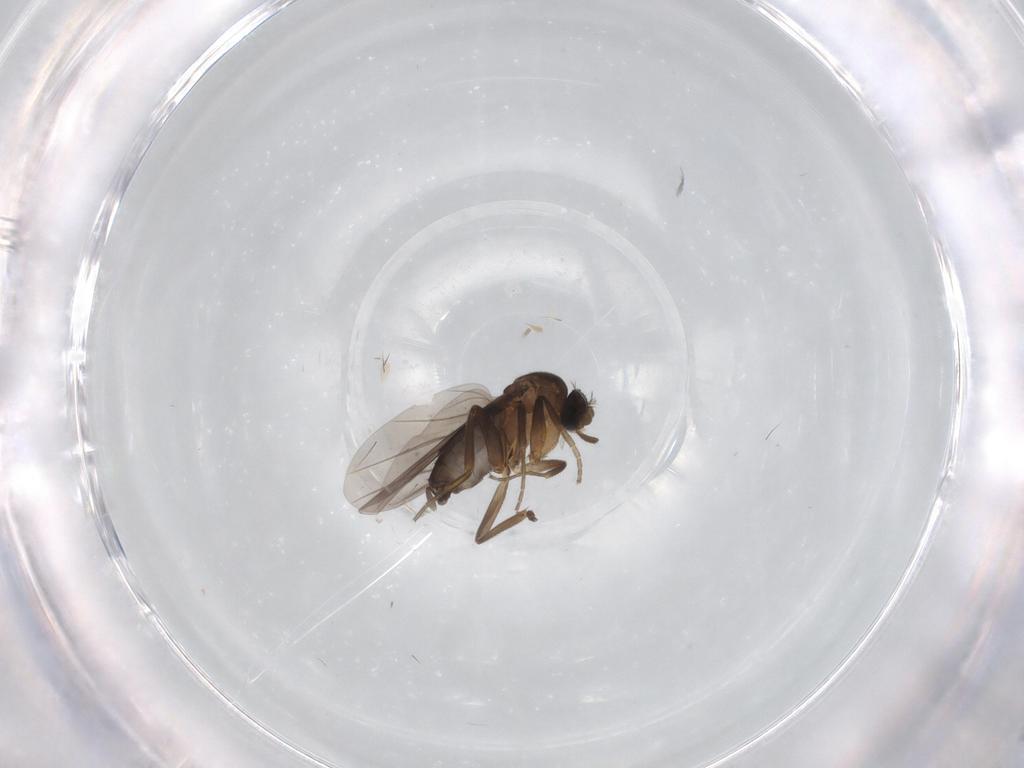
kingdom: Animalia
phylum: Arthropoda
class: Insecta
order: Diptera
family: Phoridae
